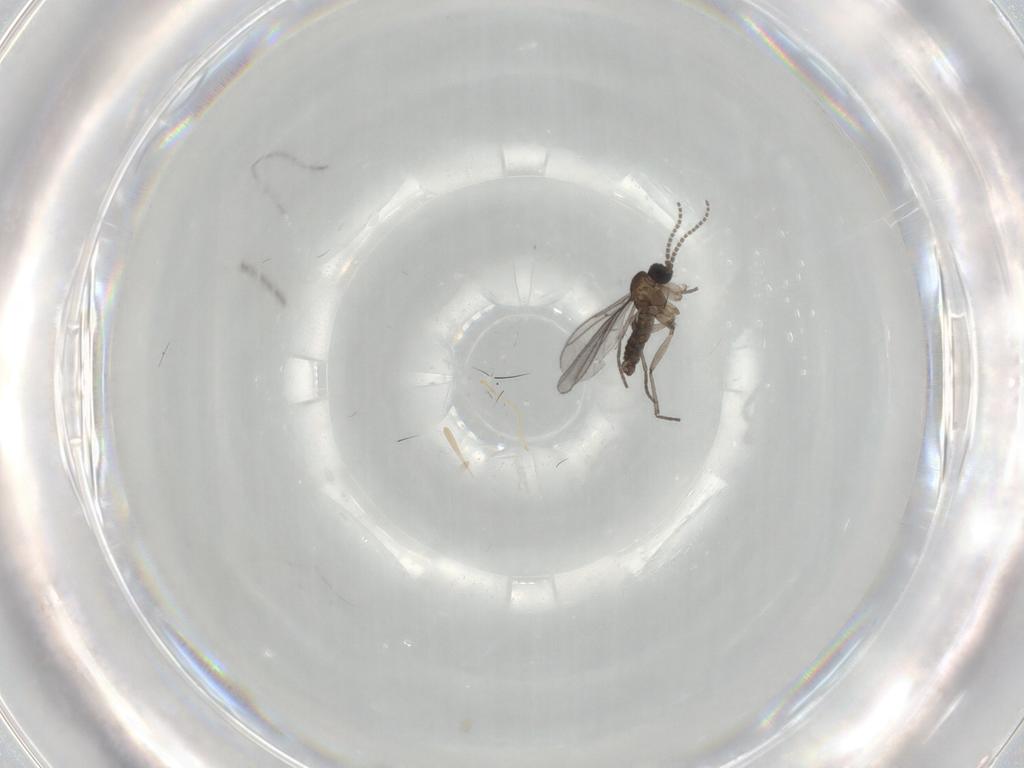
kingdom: Animalia
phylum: Arthropoda
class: Insecta
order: Diptera
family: Sciaridae
